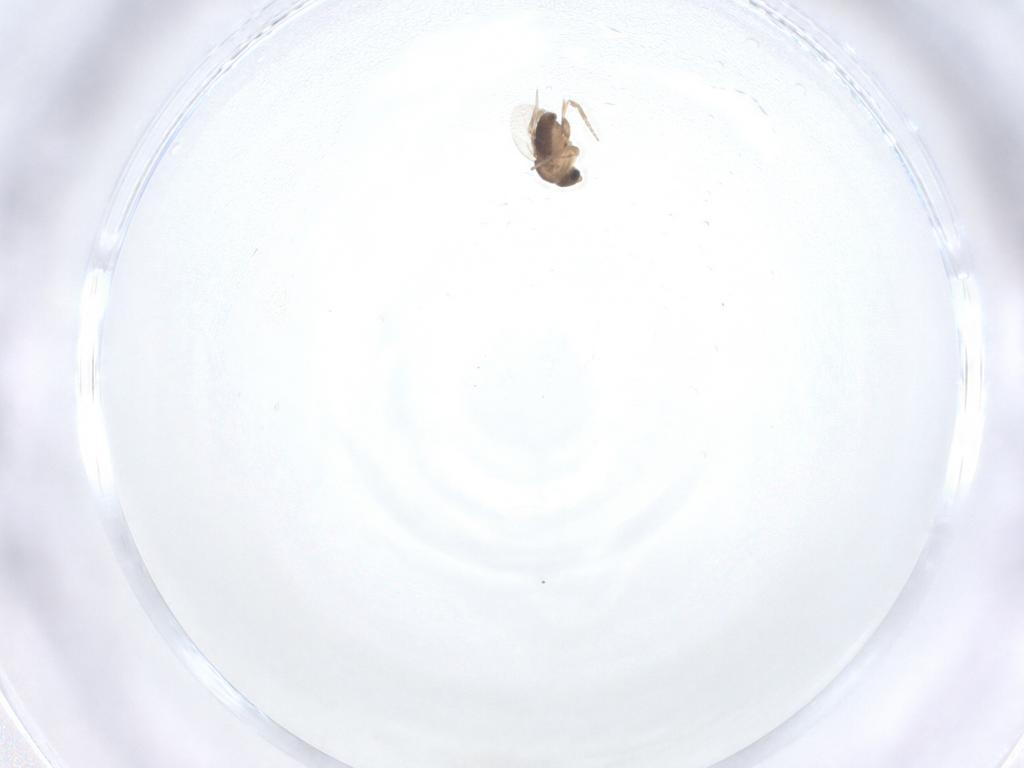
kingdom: Animalia
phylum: Arthropoda
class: Insecta
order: Diptera
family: Phoridae
